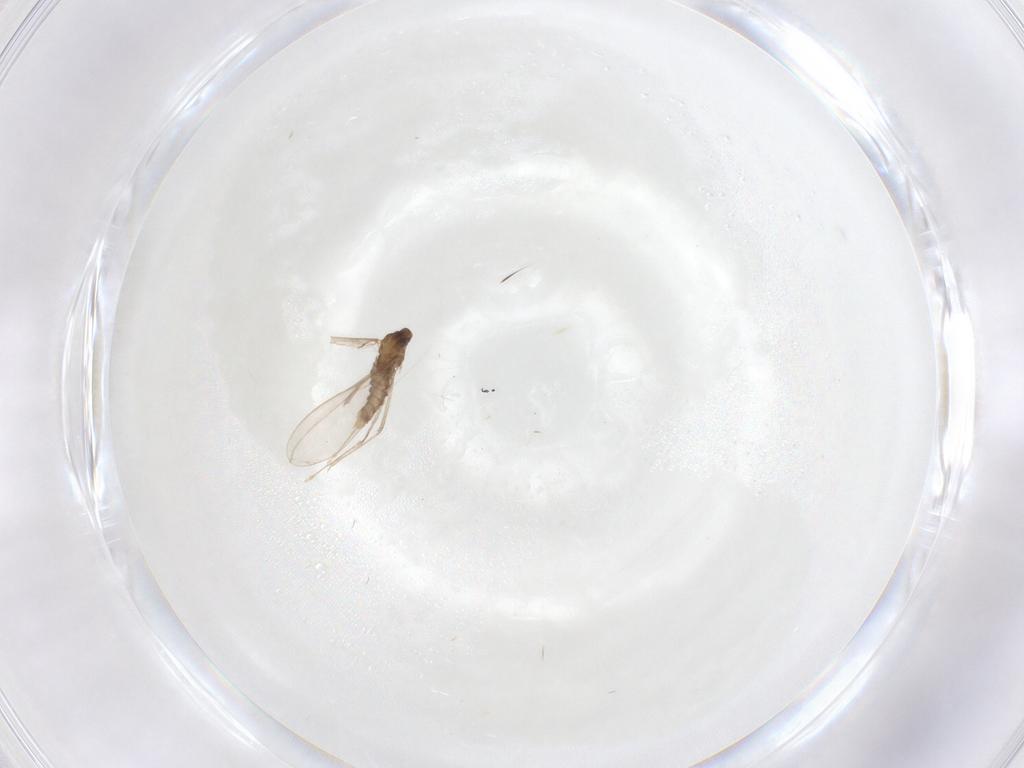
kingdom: Animalia
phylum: Arthropoda
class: Insecta
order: Diptera
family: Cecidomyiidae
